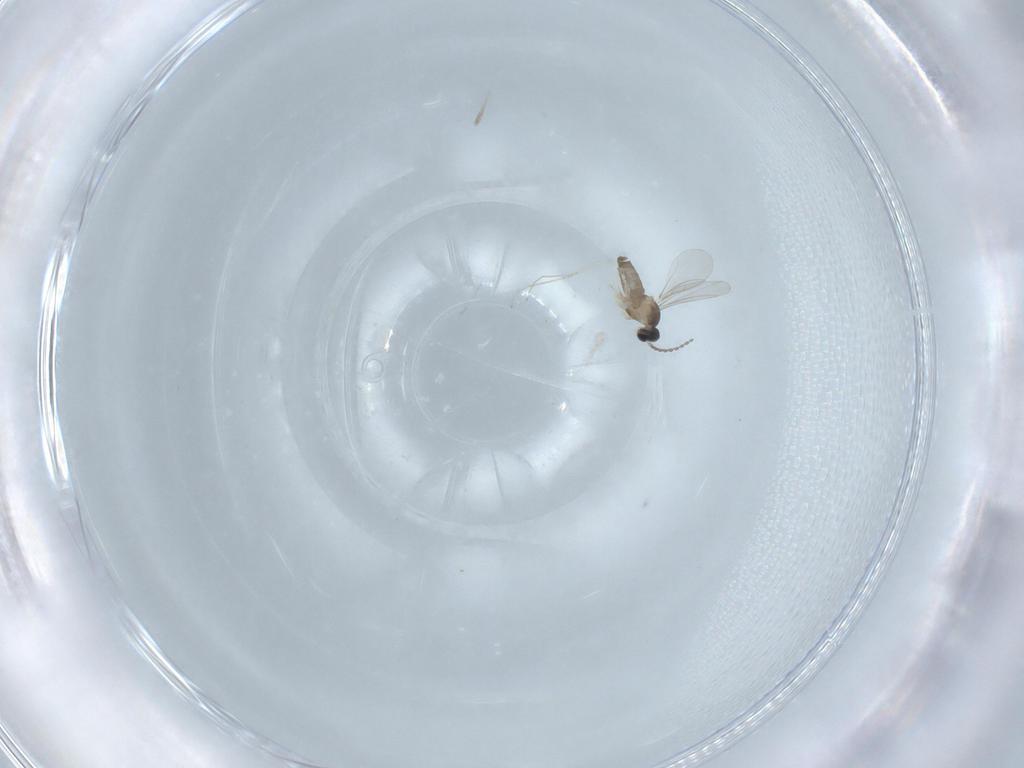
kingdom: Animalia
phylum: Arthropoda
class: Insecta
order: Diptera
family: Cecidomyiidae
